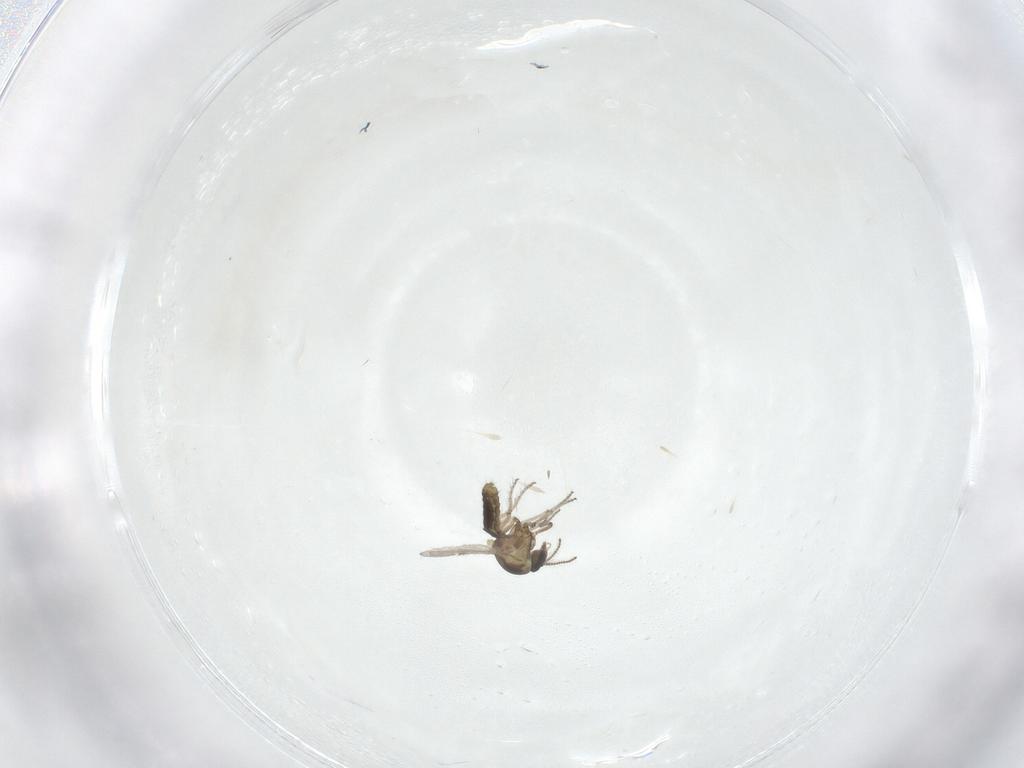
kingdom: Animalia
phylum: Arthropoda
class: Insecta
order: Diptera
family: Ceratopogonidae
